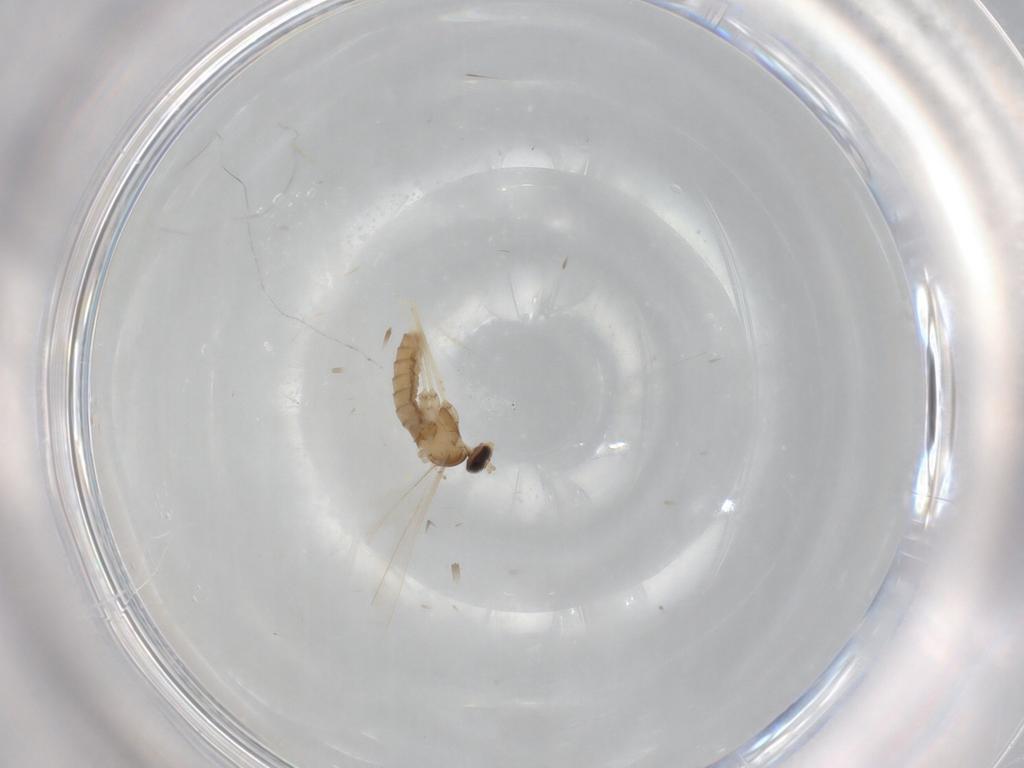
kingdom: Animalia
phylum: Arthropoda
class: Insecta
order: Diptera
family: Cecidomyiidae
